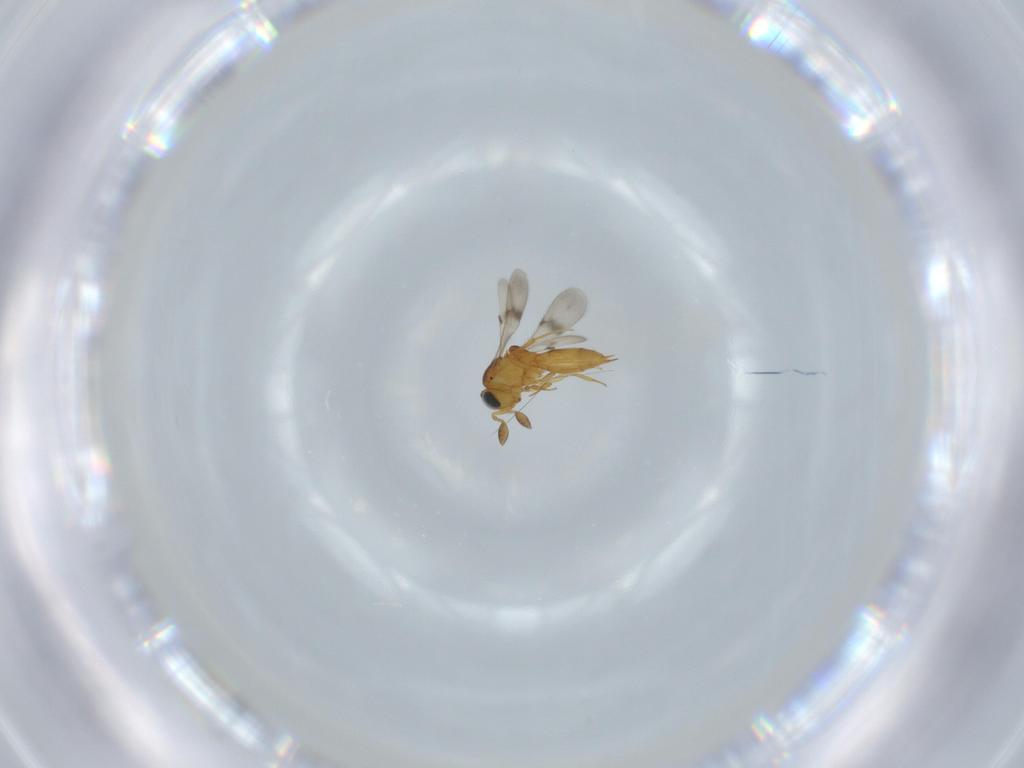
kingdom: Animalia
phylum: Arthropoda
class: Insecta
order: Hymenoptera
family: Scelionidae
